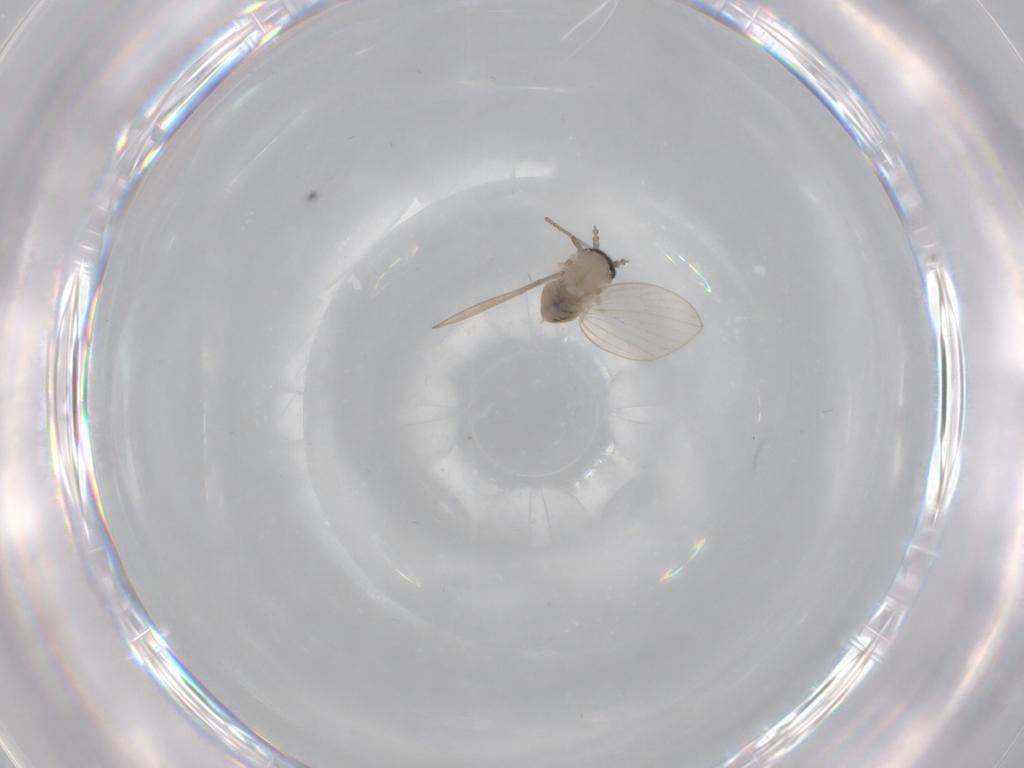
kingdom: Animalia
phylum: Arthropoda
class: Insecta
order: Diptera
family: Psychodidae
